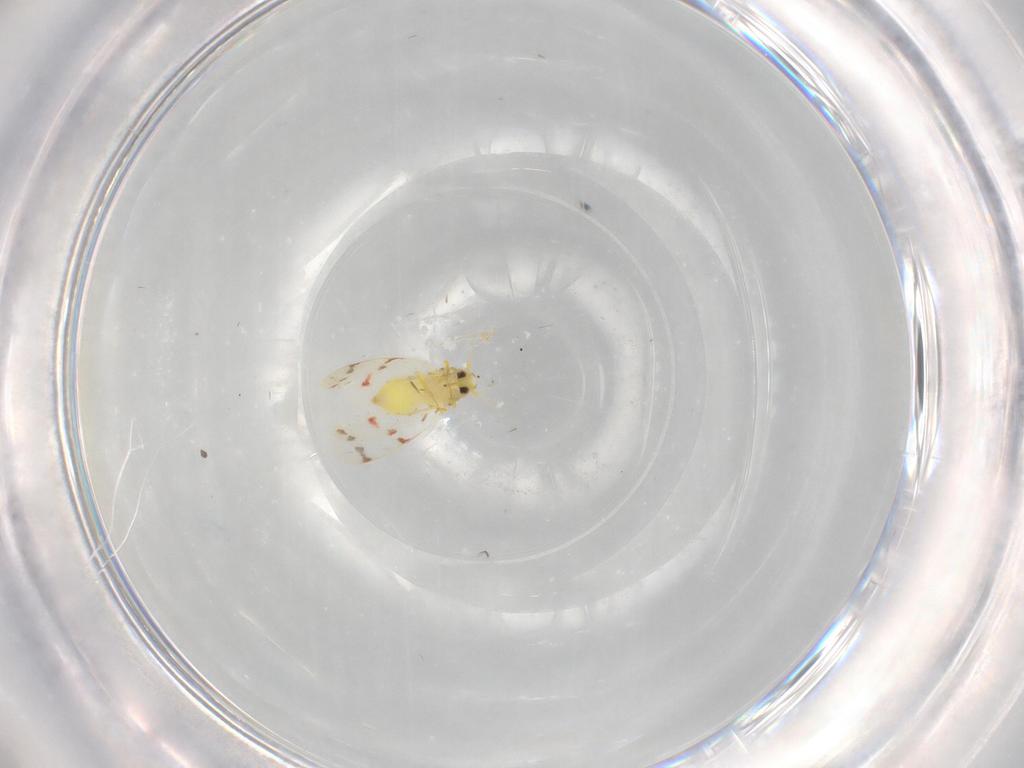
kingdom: Animalia
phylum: Arthropoda
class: Insecta
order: Hemiptera
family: Aleyrodidae
